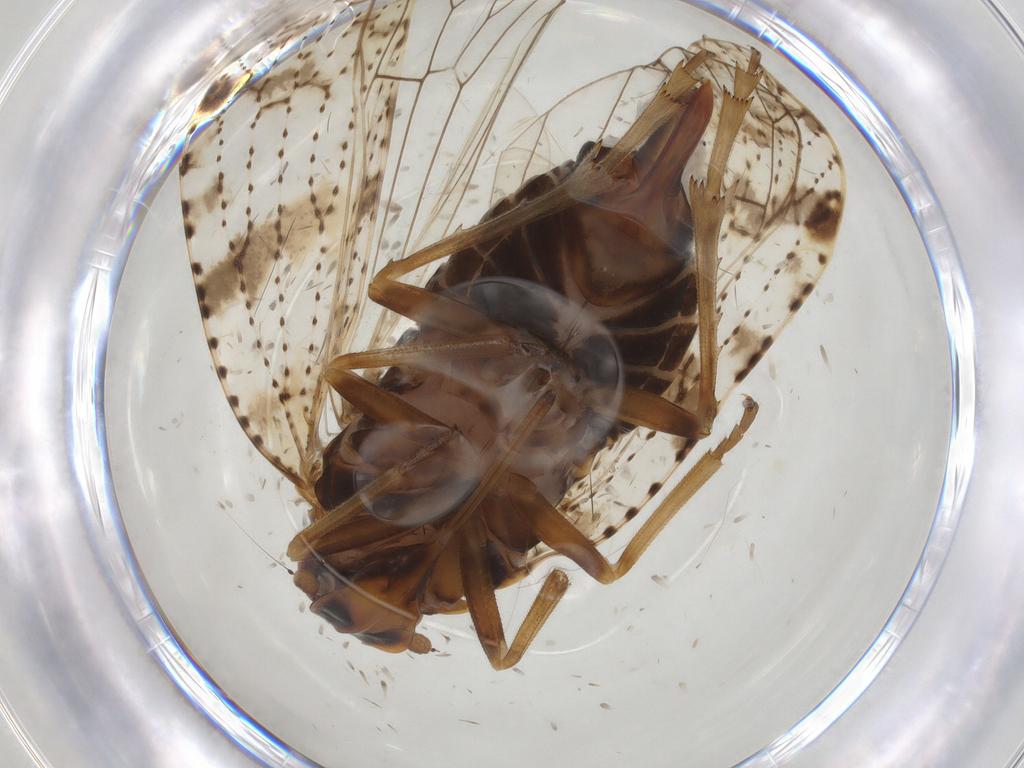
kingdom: Animalia
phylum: Arthropoda
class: Insecta
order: Hemiptera
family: Cixiidae
